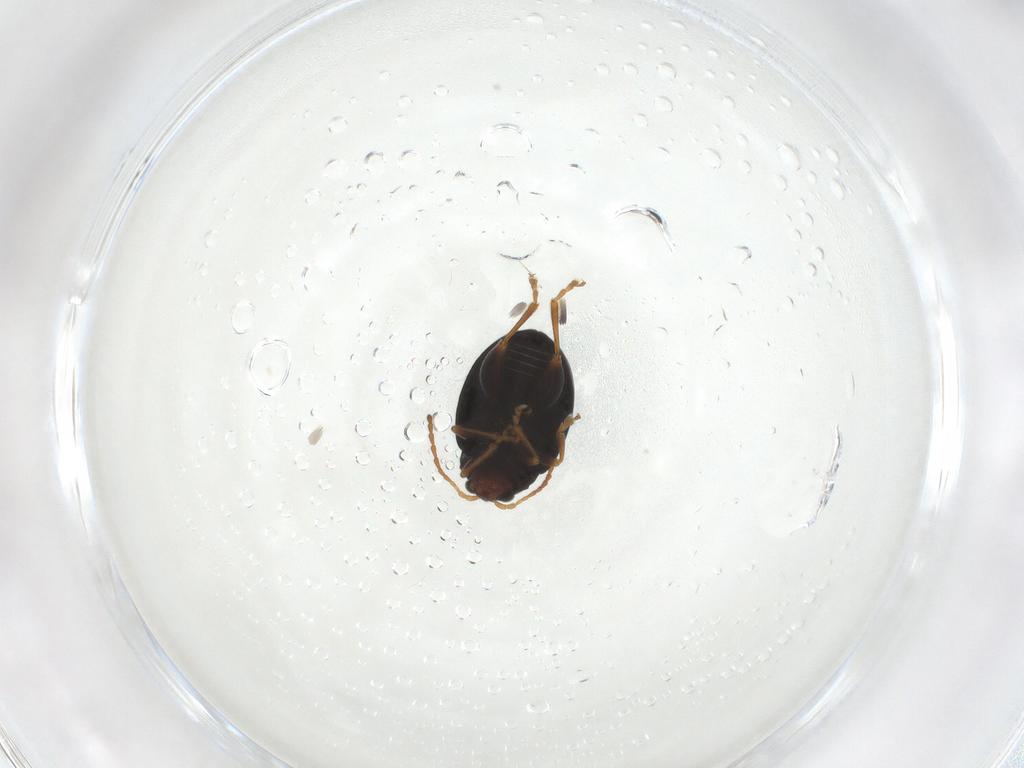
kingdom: Animalia
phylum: Arthropoda
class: Insecta
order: Coleoptera
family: Chrysomelidae
